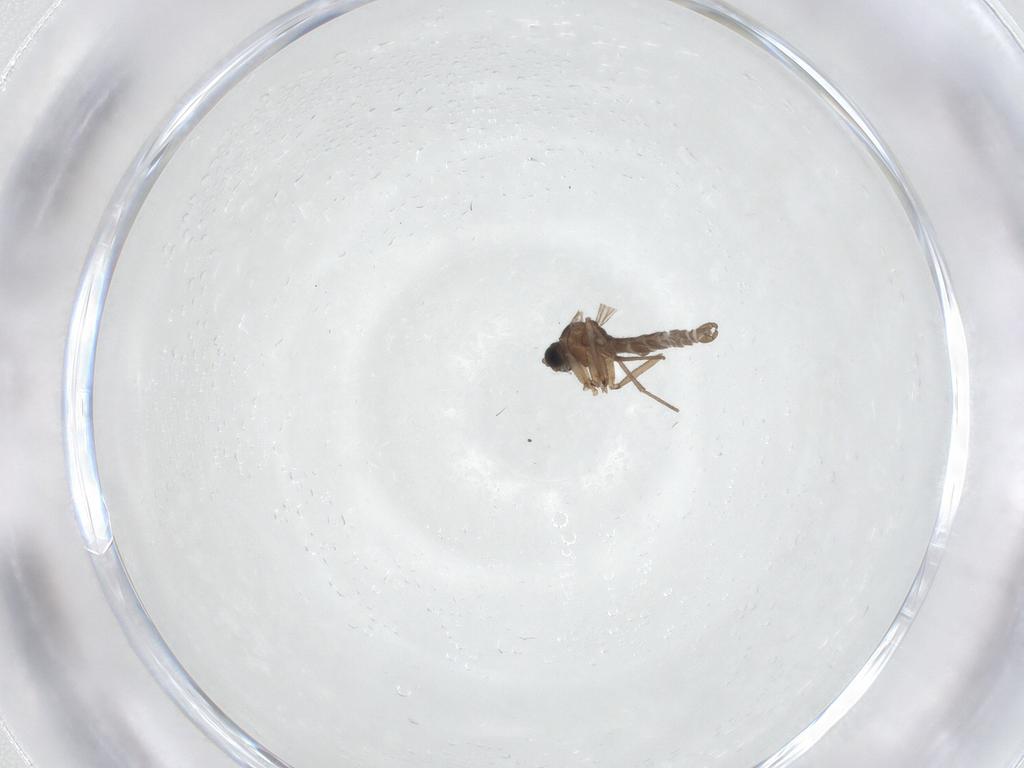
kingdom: Animalia
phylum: Arthropoda
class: Insecta
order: Diptera
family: Sciaridae
